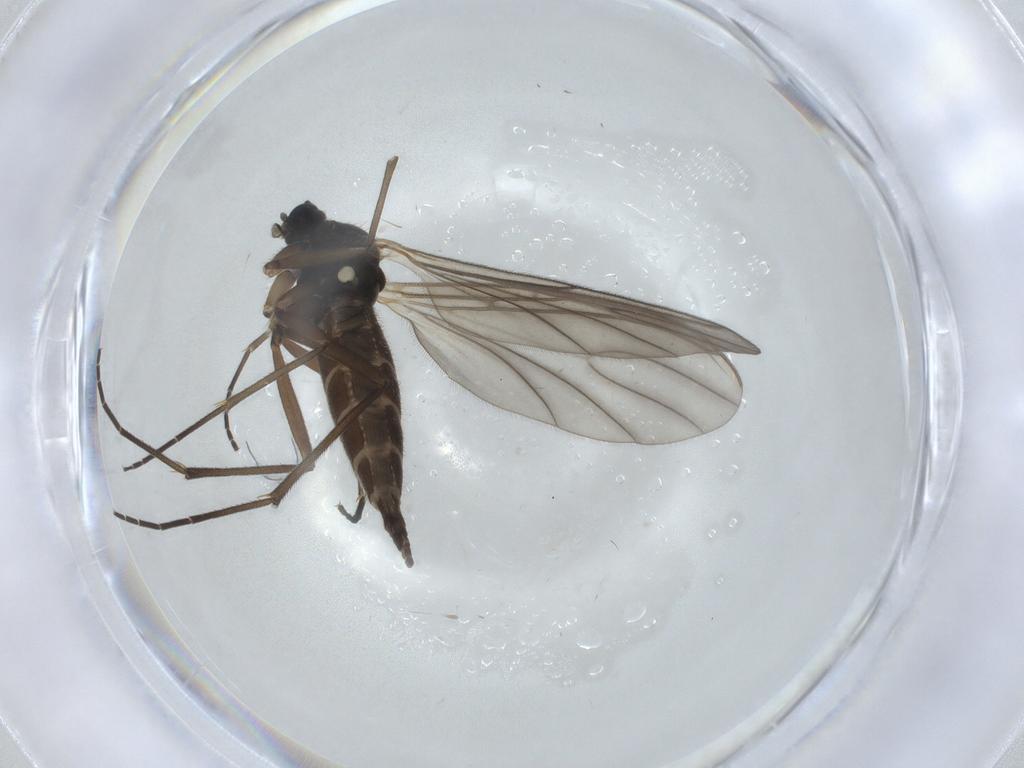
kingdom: Animalia
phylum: Arthropoda
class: Insecta
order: Diptera
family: Sciaridae
